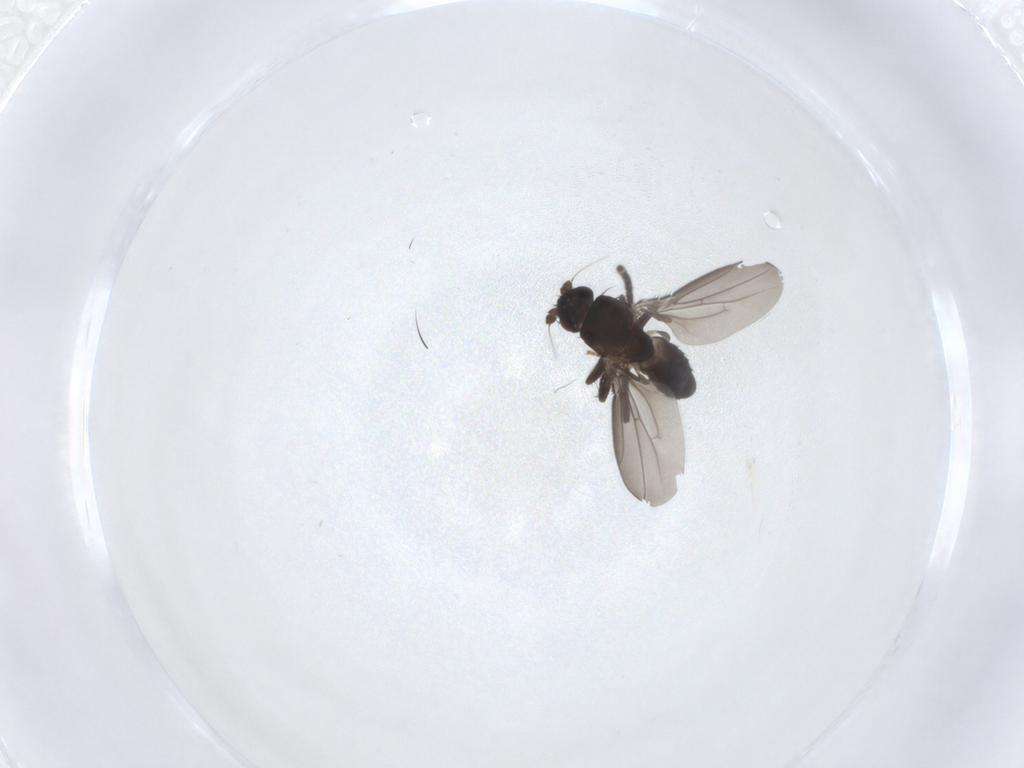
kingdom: Animalia
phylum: Arthropoda
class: Insecta
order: Diptera
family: Sphaeroceridae
